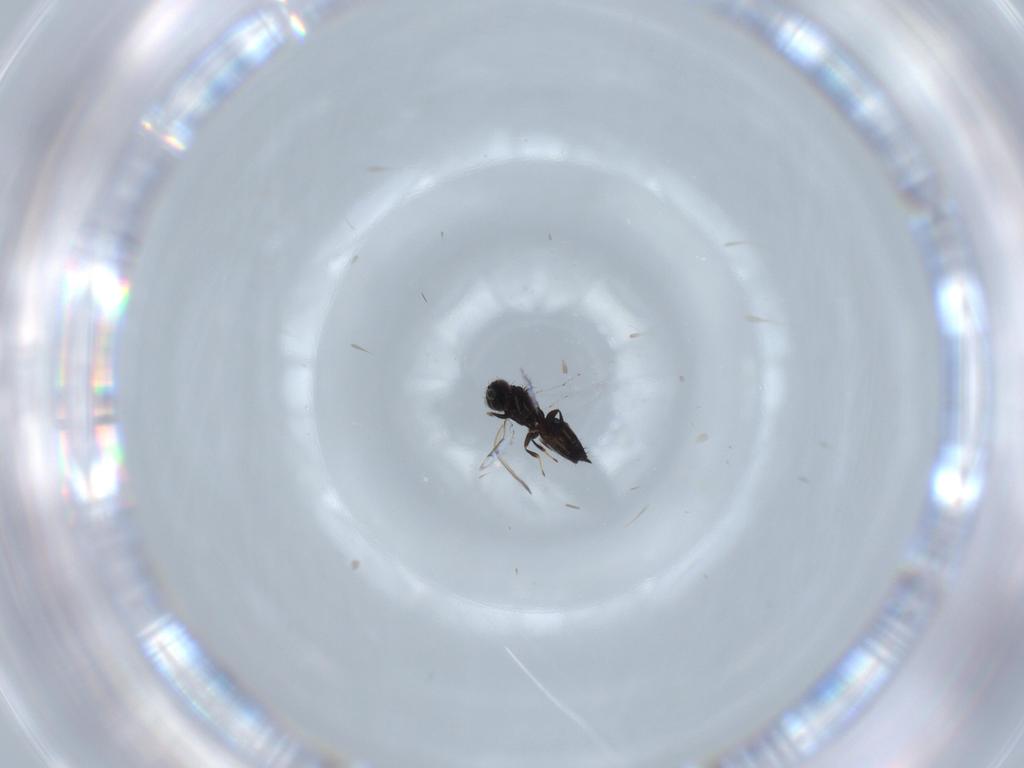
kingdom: Animalia
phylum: Arthropoda
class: Insecta
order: Hymenoptera
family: Pirenidae
